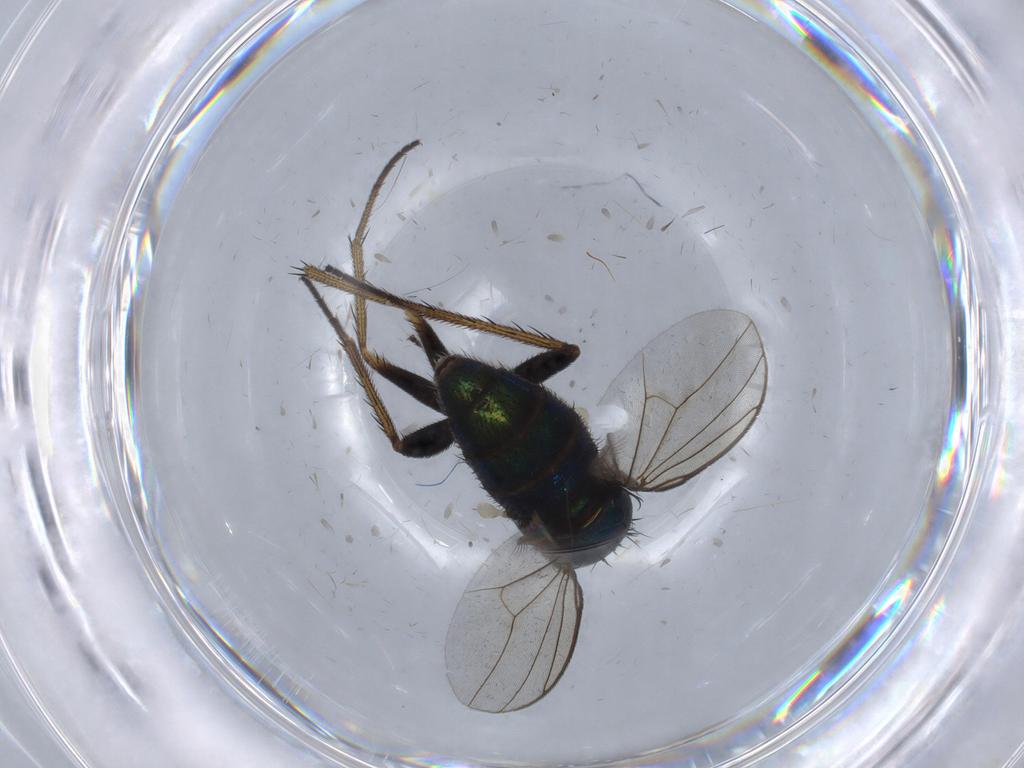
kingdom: Animalia
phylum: Arthropoda
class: Insecta
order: Diptera
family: Dolichopodidae
